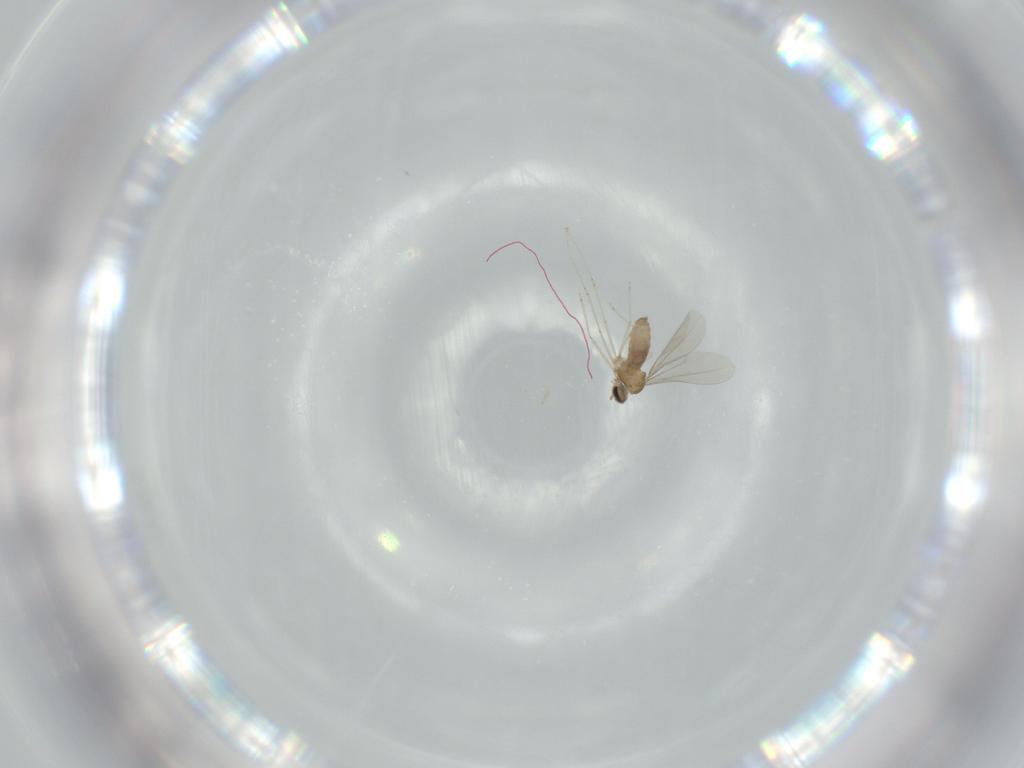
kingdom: Animalia
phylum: Arthropoda
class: Insecta
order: Diptera
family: Cecidomyiidae
